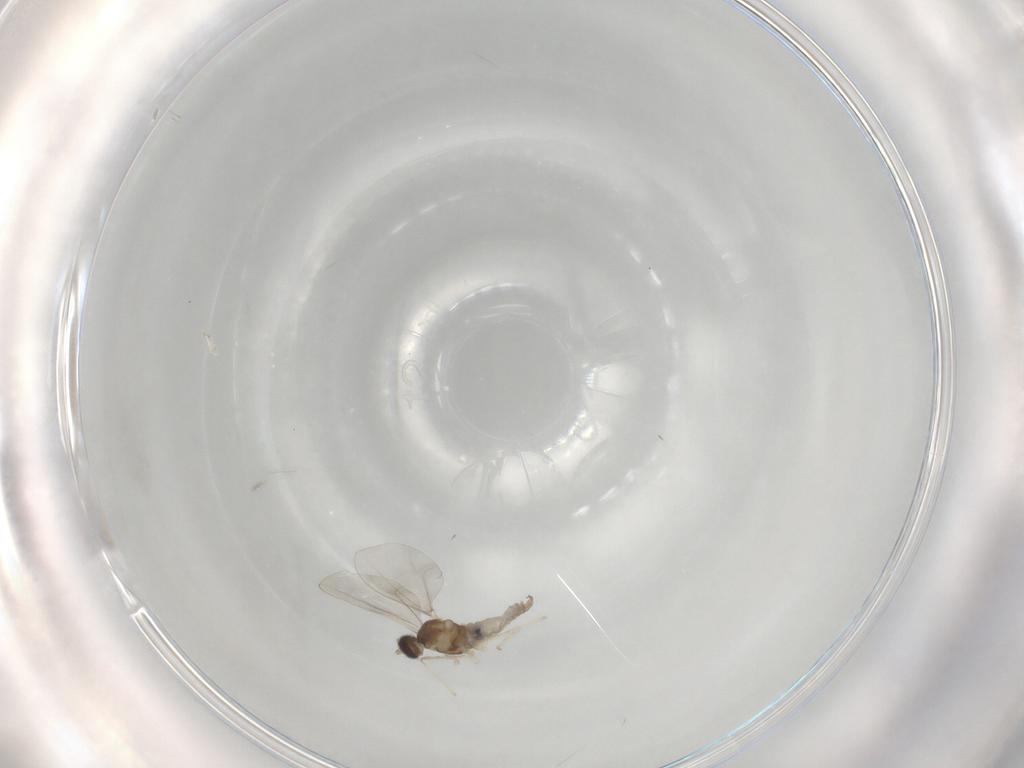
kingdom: Animalia
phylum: Arthropoda
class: Insecta
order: Diptera
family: Cecidomyiidae
